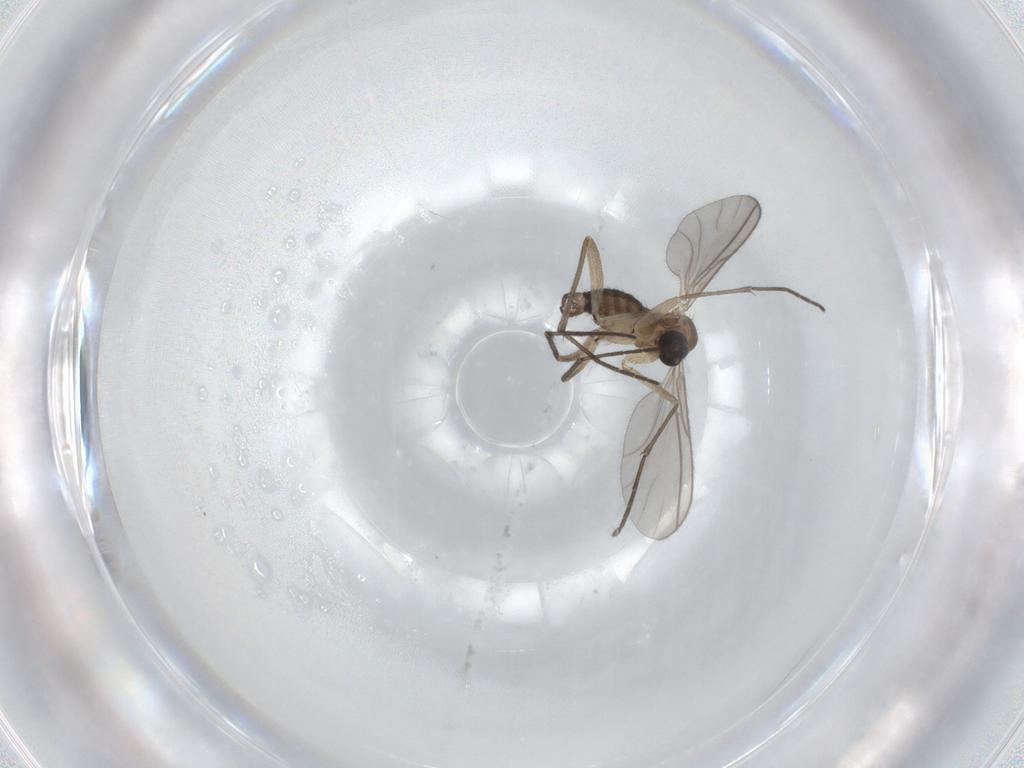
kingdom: Animalia
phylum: Arthropoda
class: Insecta
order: Diptera
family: Sciaridae
